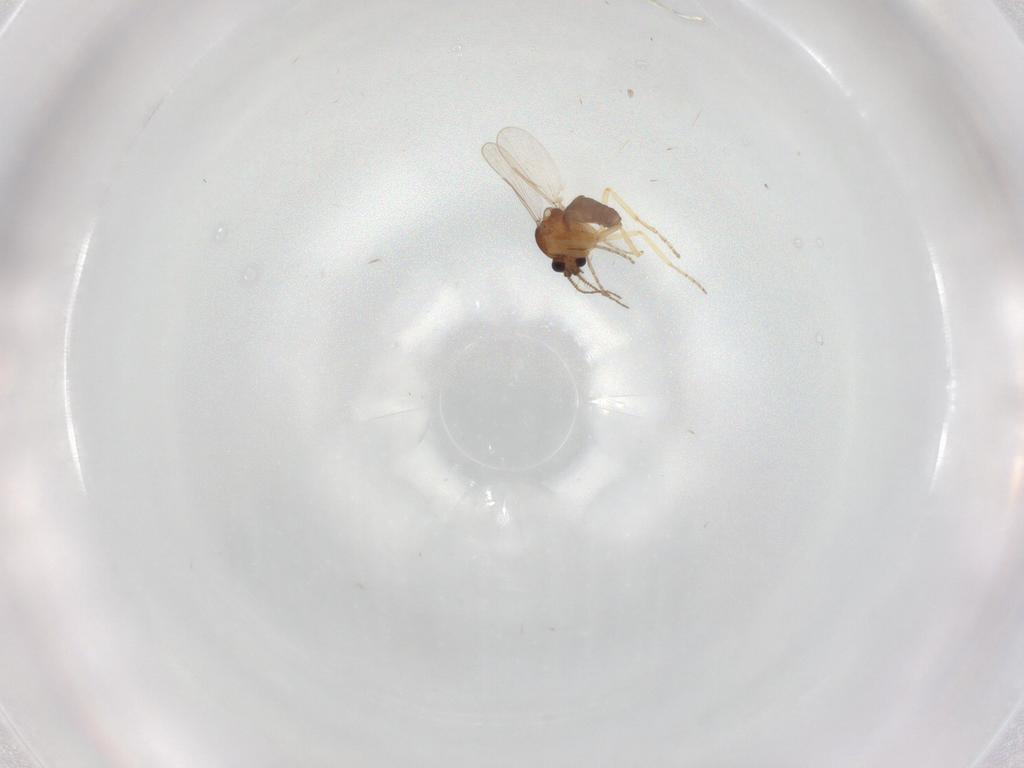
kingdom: Animalia
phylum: Arthropoda
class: Insecta
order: Diptera
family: Ceratopogonidae
